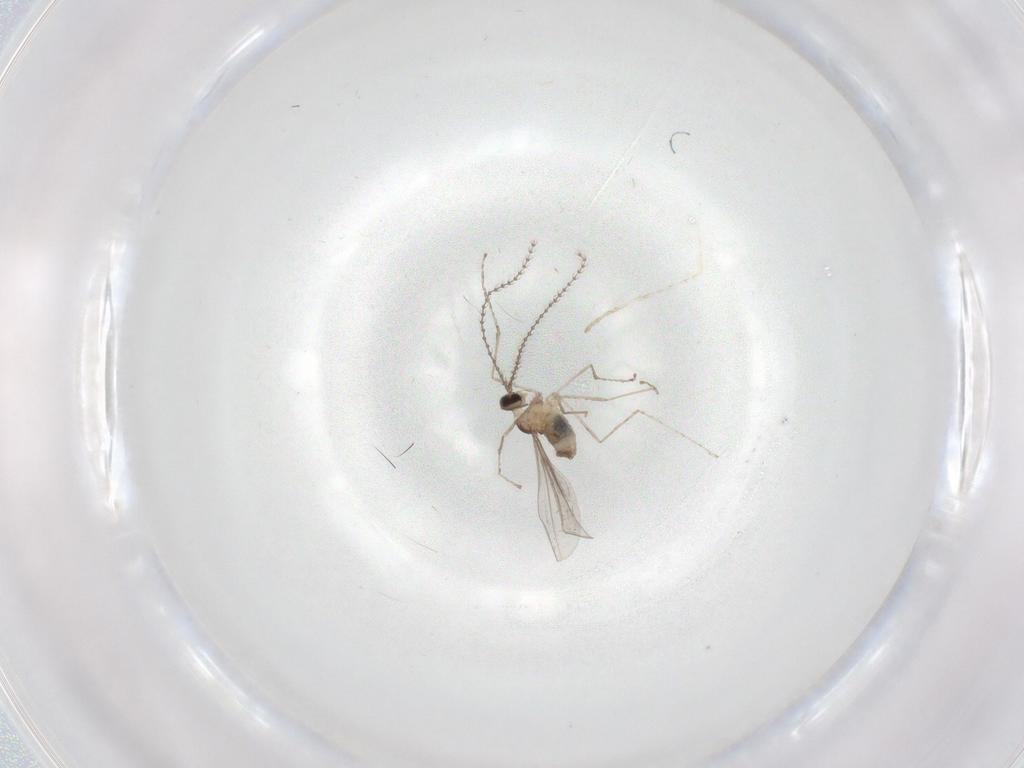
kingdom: Animalia
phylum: Arthropoda
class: Insecta
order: Diptera
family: Cecidomyiidae
